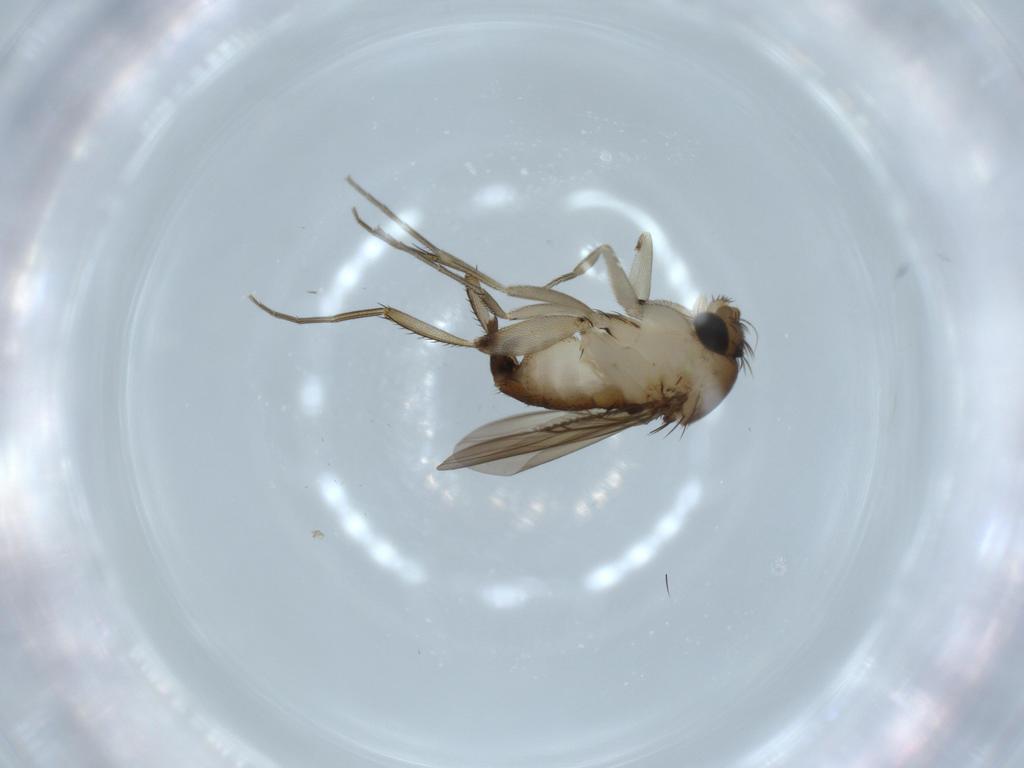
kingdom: Animalia
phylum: Arthropoda
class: Insecta
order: Diptera
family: Phoridae
